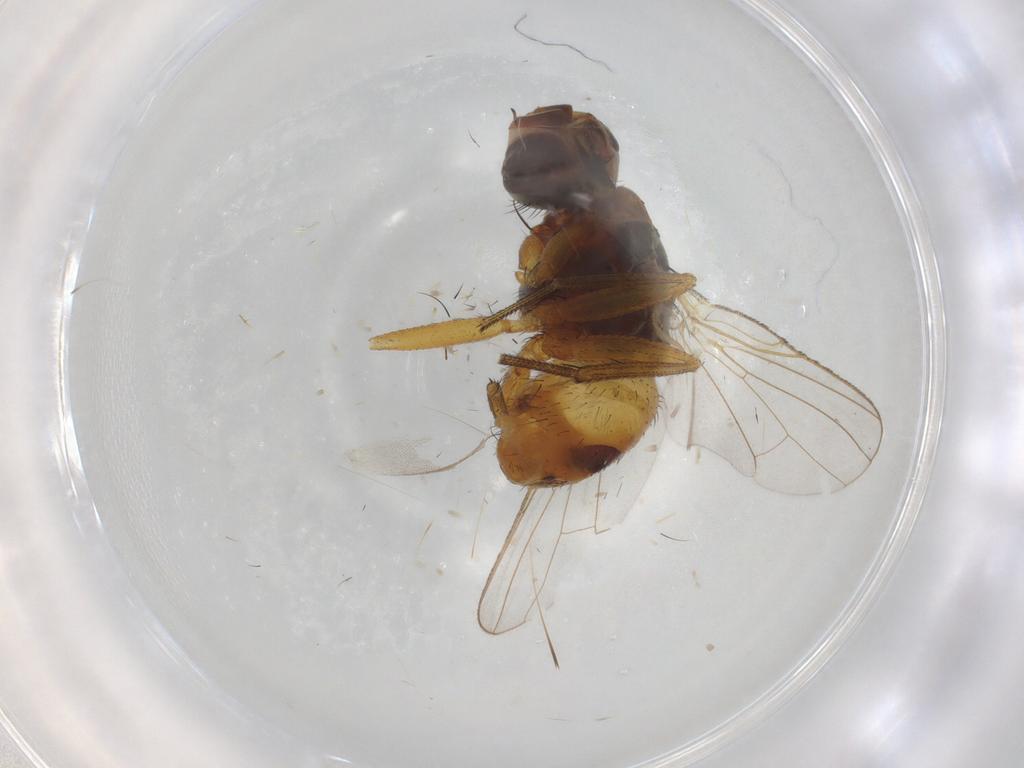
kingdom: Animalia
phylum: Arthropoda
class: Insecta
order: Diptera
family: Muscidae
